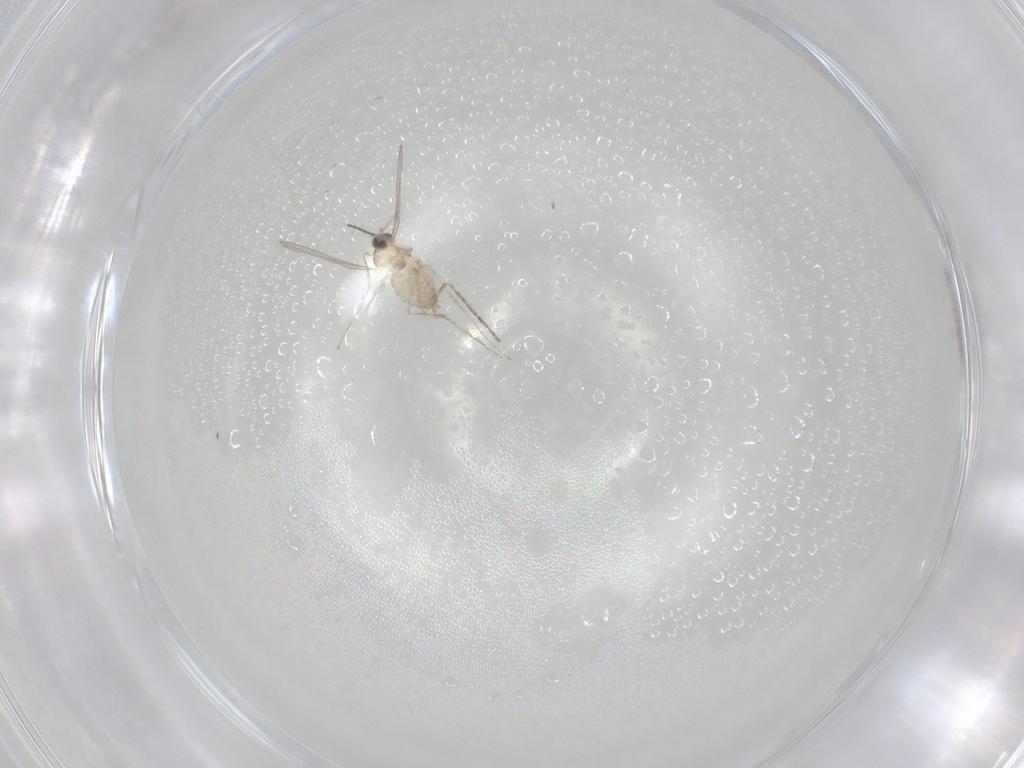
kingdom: Animalia
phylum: Arthropoda
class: Insecta
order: Diptera
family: Cecidomyiidae
